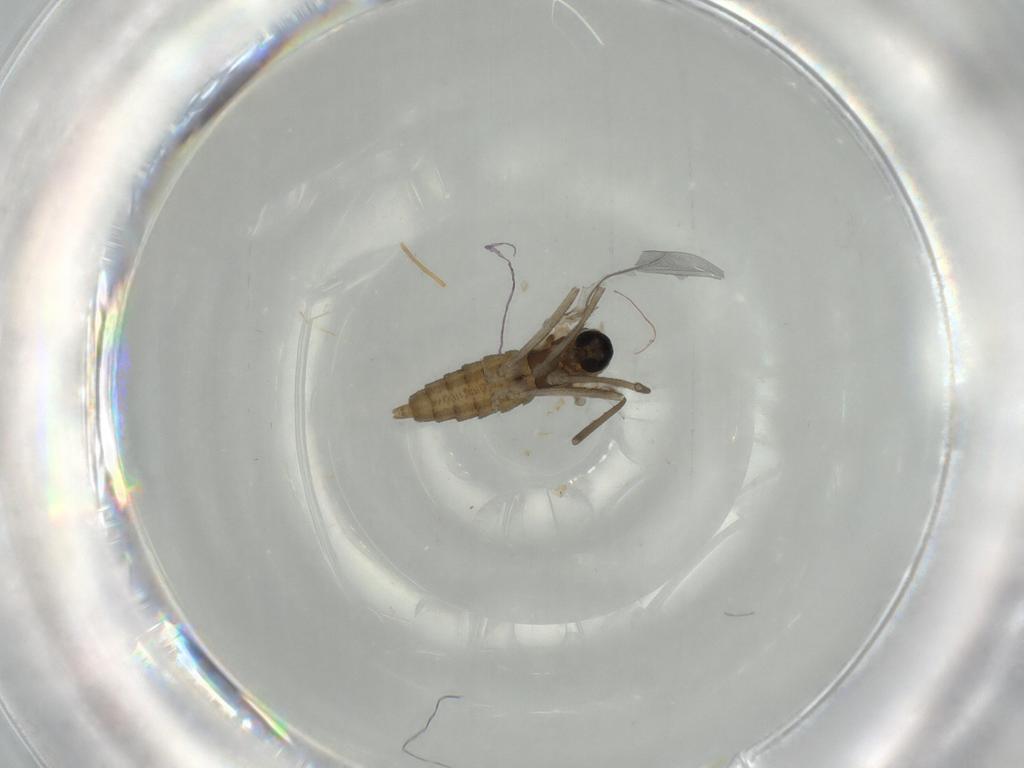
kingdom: Animalia
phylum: Arthropoda
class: Insecta
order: Diptera
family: Cecidomyiidae
